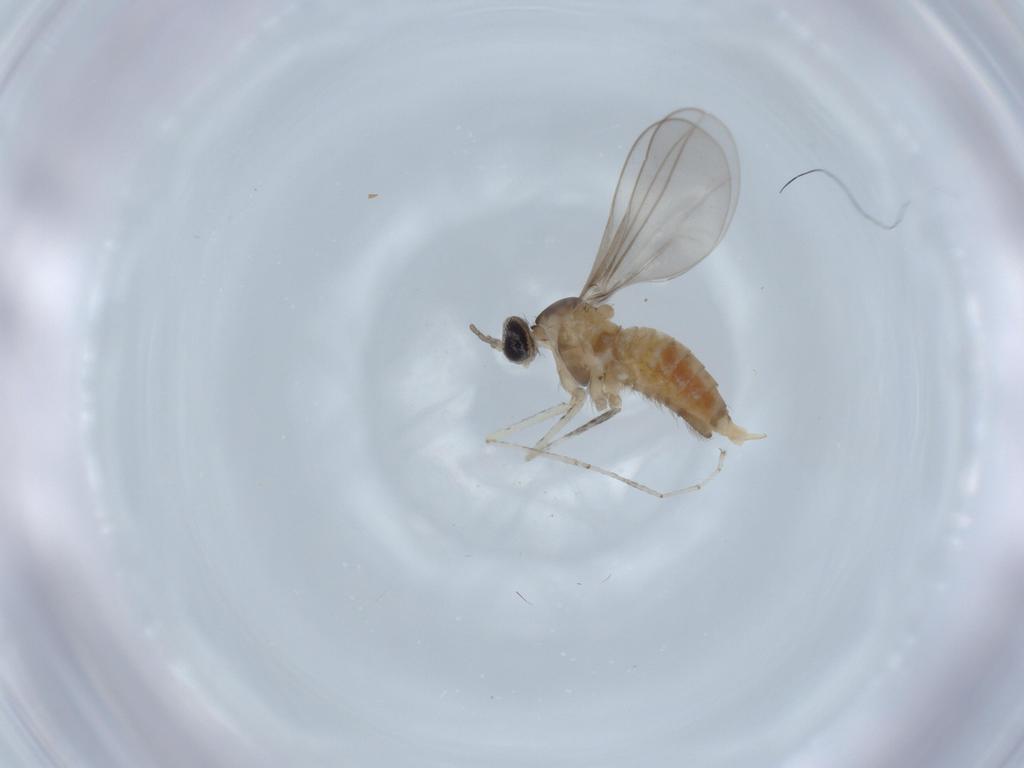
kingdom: Animalia
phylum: Arthropoda
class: Insecta
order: Diptera
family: Cecidomyiidae
